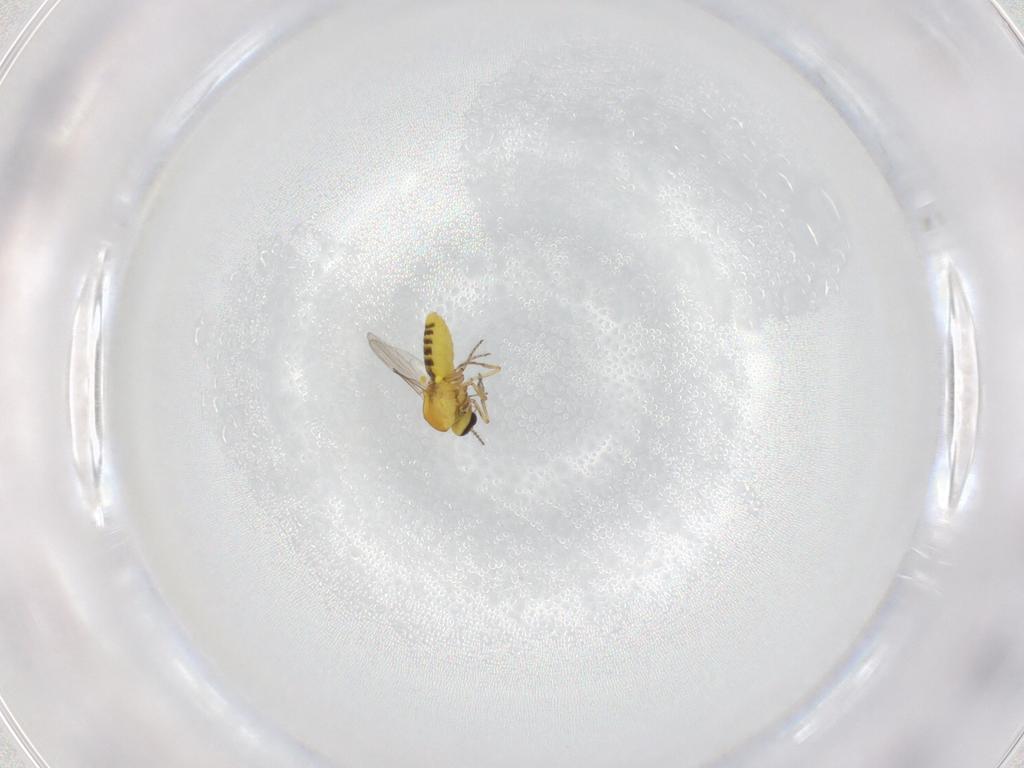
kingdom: Animalia
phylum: Arthropoda
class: Insecta
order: Diptera
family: Ceratopogonidae
